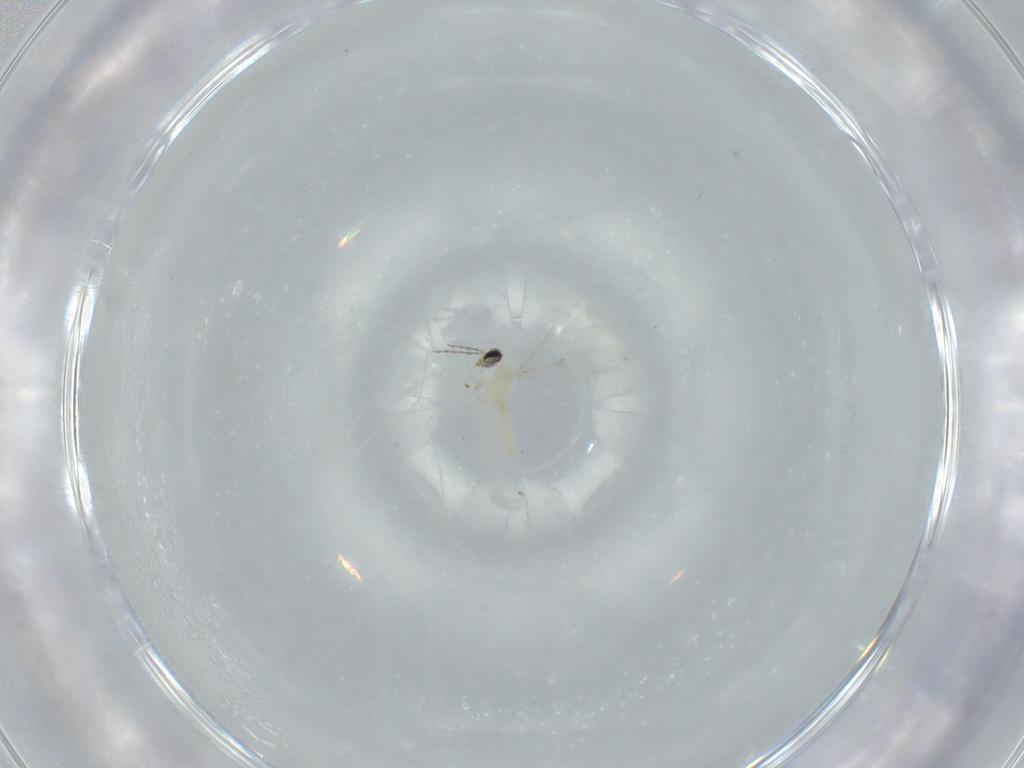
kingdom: Animalia
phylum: Arthropoda
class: Insecta
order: Diptera
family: Cecidomyiidae
